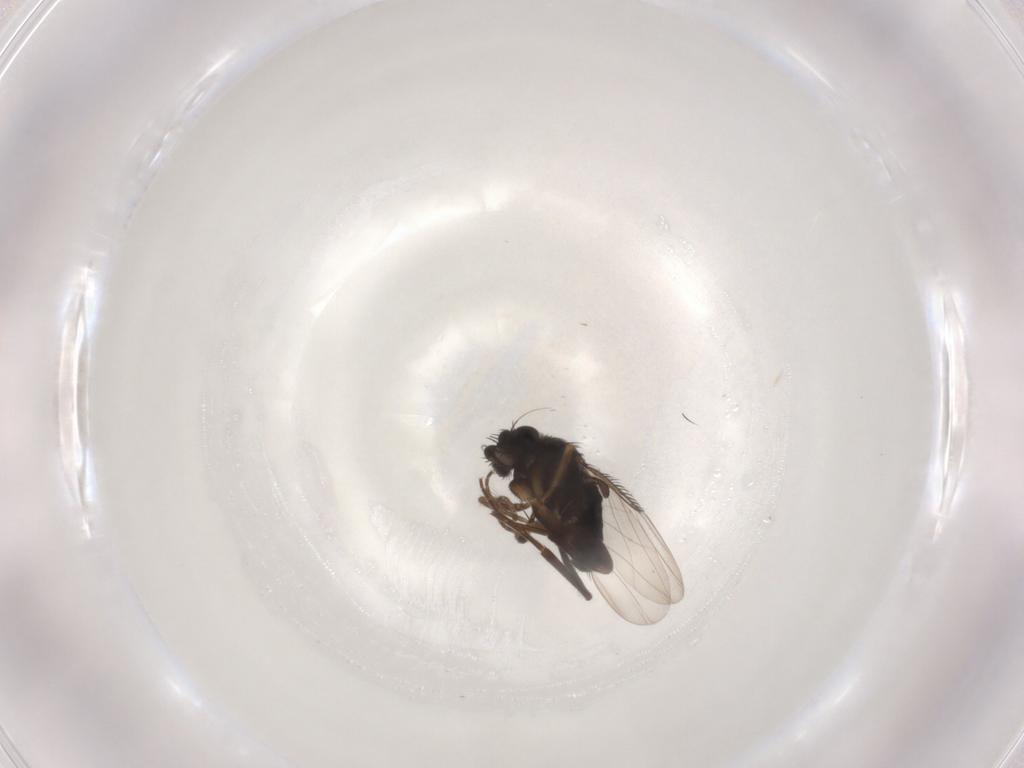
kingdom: Animalia
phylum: Arthropoda
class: Insecta
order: Diptera
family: Phoridae
